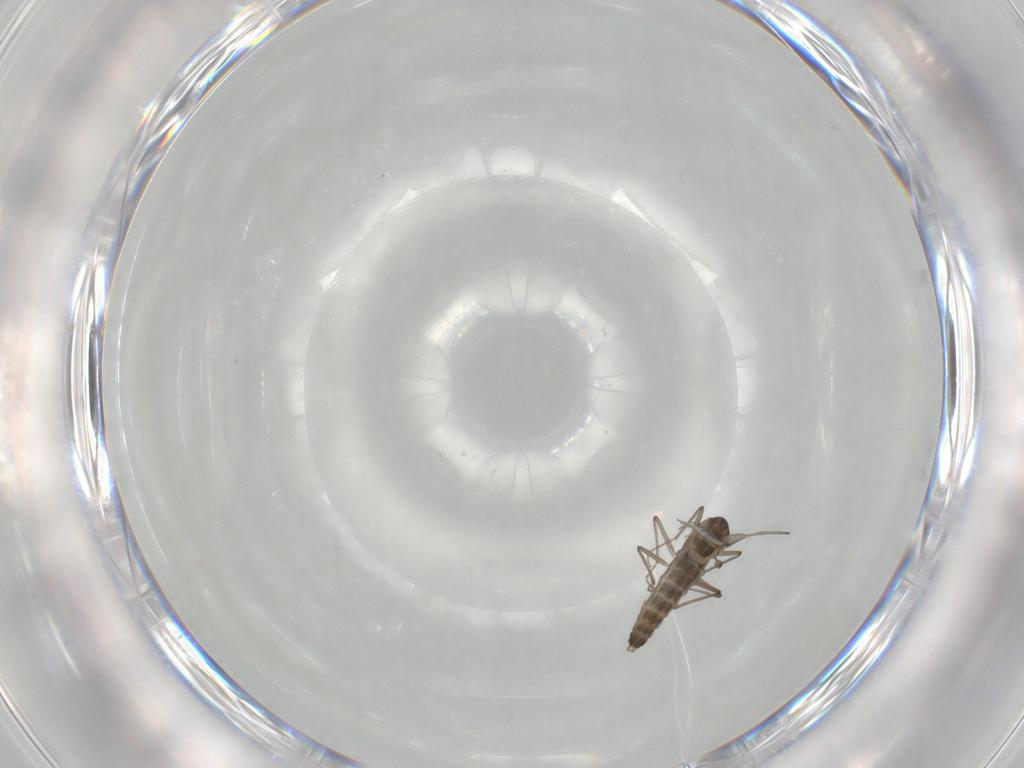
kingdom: Animalia
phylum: Arthropoda
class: Insecta
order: Diptera
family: Chironomidae
